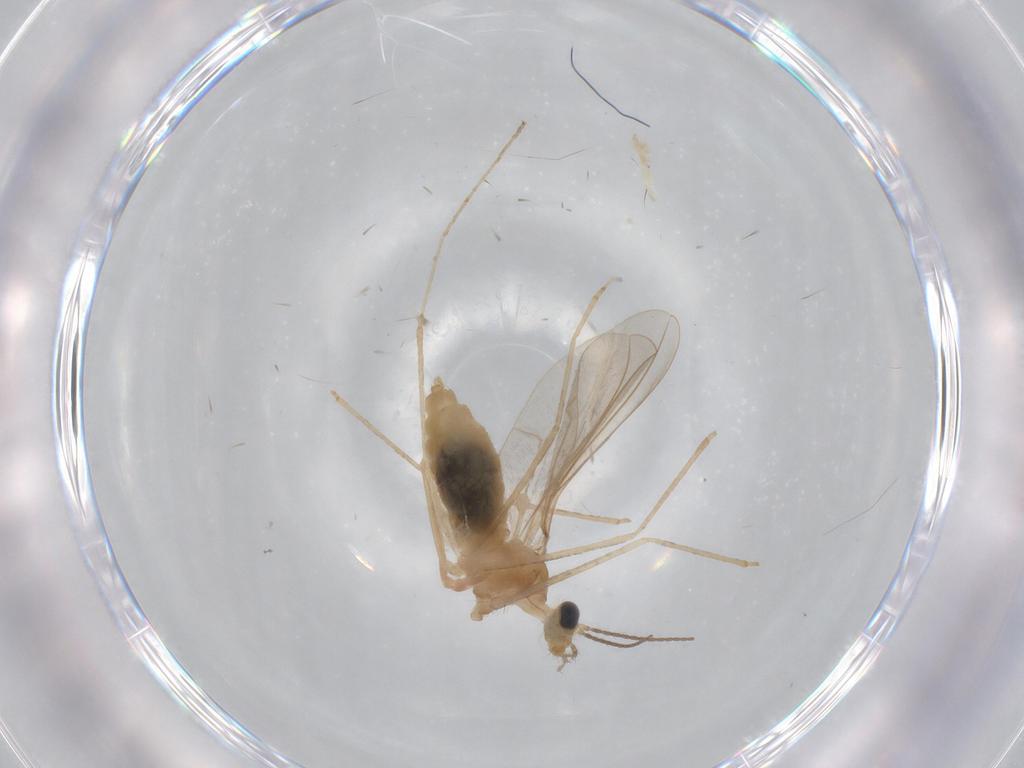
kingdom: Animalia
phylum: Arthropoda
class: Insecta
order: Diptera
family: Cecidomyiidae
